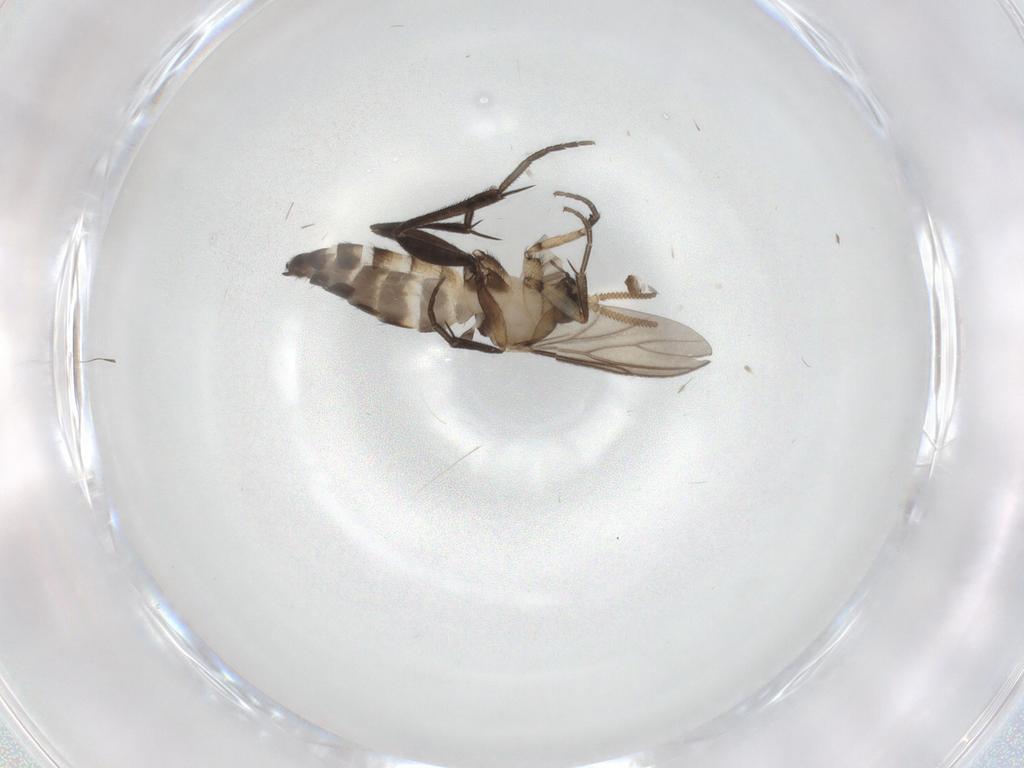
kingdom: Animalia
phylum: Arthropoda
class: Insecta
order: Diptera
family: Mycetophilidae
